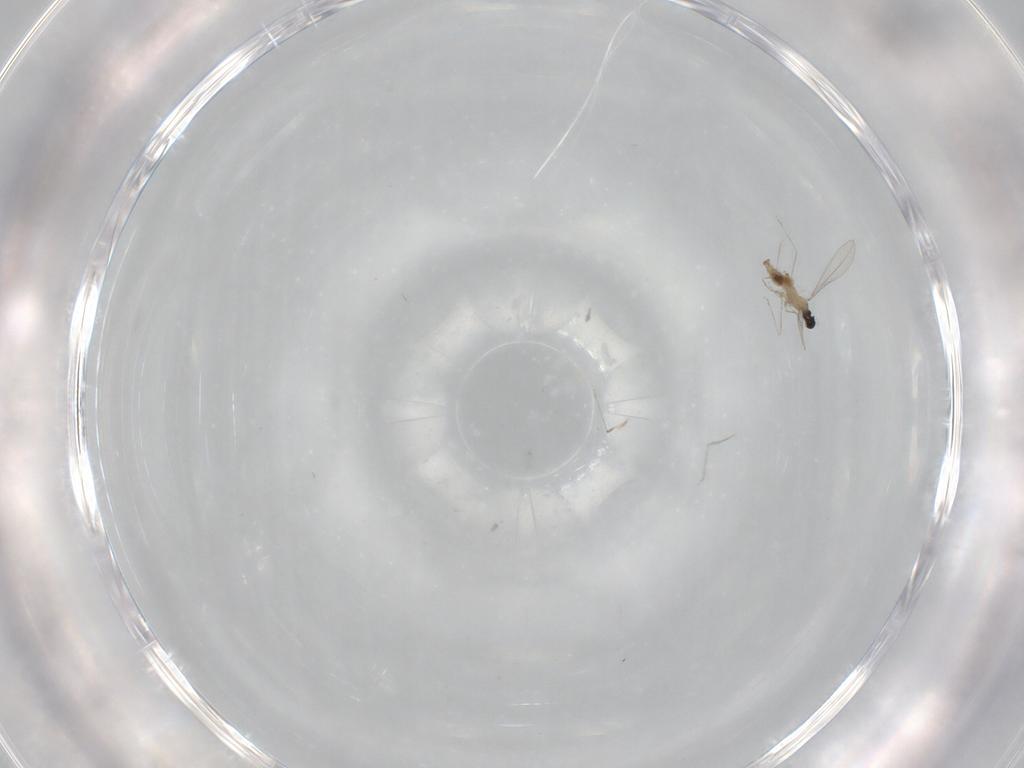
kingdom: Animalia
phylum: Arthropoda
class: Insecta
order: Diptera
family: Cecidomyiidae
